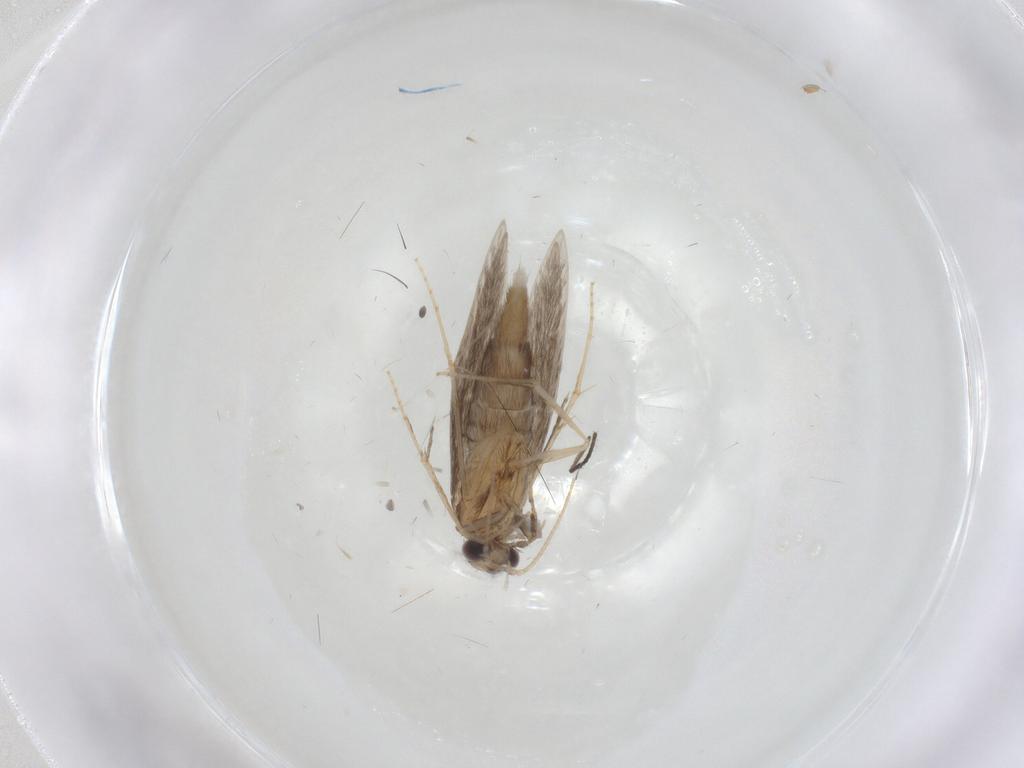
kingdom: Animalia
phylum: Arthropoda
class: Insecta
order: Trichoptera
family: Hydroptilidae
